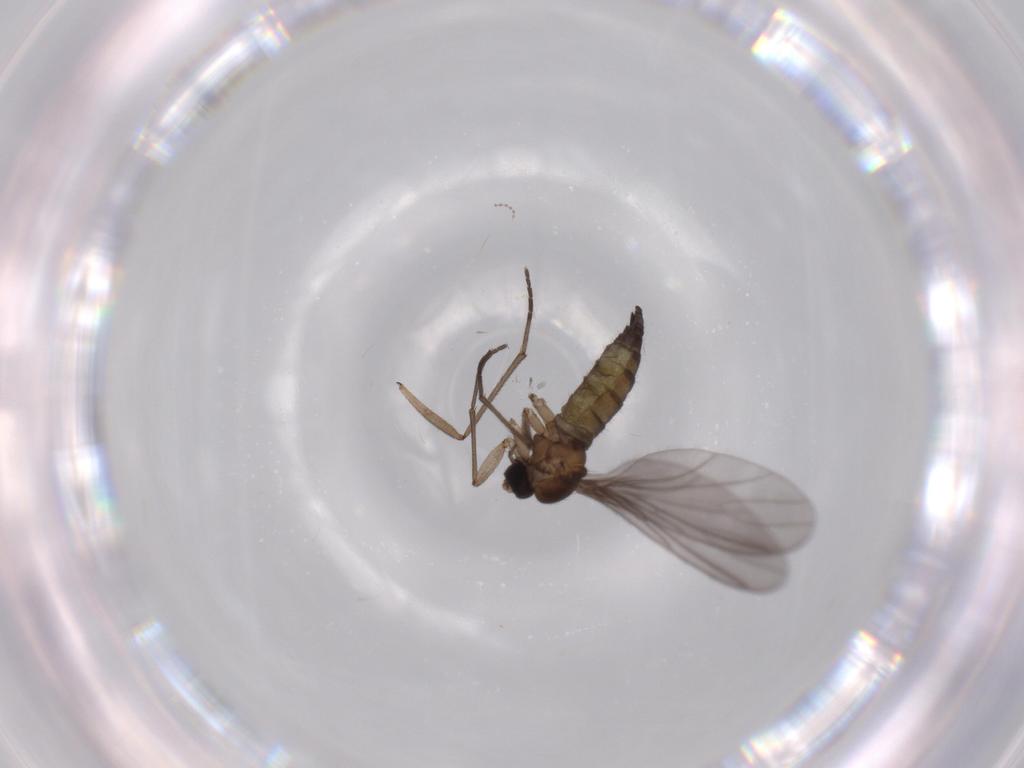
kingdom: Animalia
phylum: Arthropoda
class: Insecta
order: Diptera
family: Sciaridae
